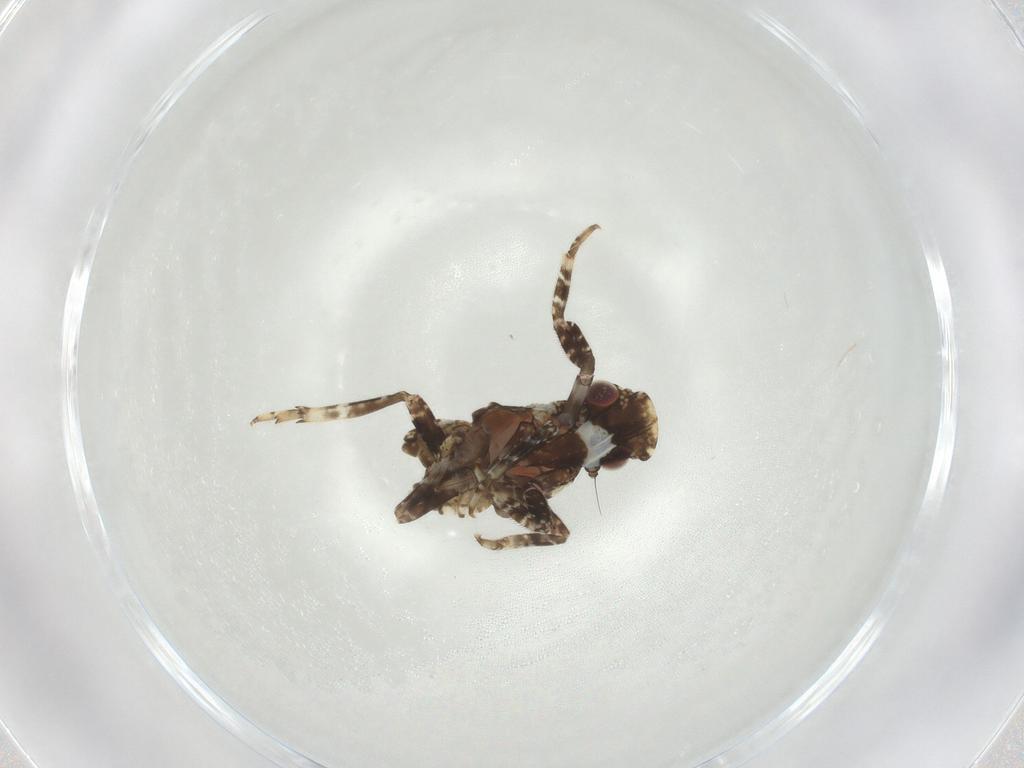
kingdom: Animalia
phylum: Arthropoda
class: Insecta
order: Hemiptera
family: Fulgoridae
